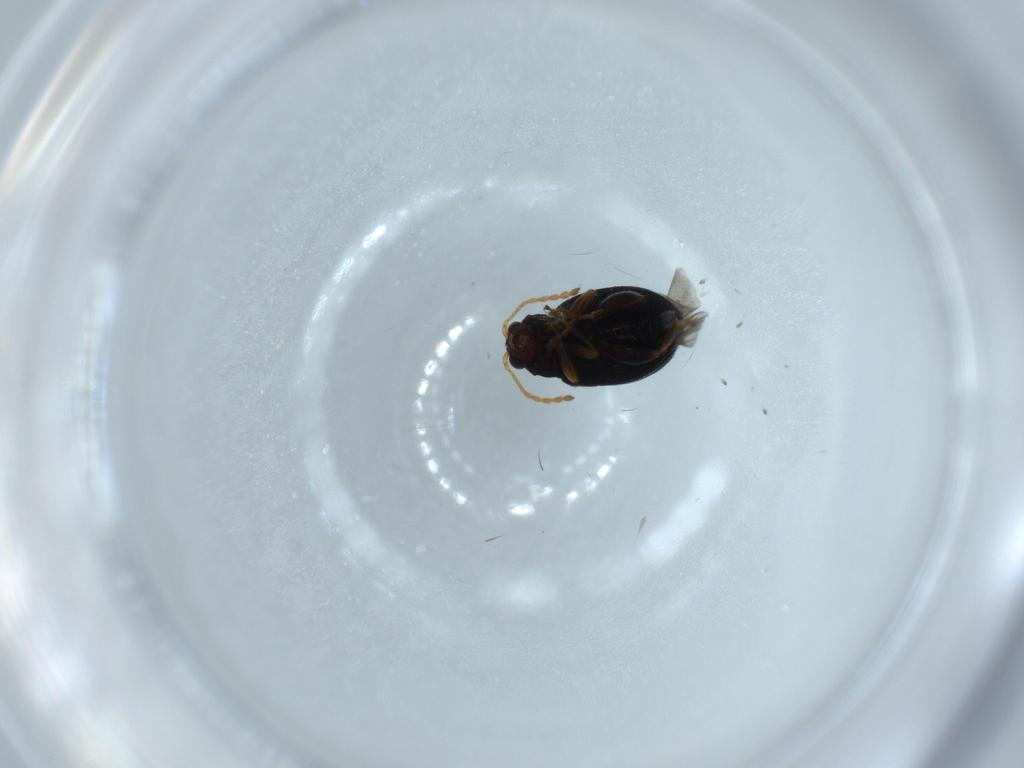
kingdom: Animalia
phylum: Arthropoda
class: Insecta
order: Coleoptera
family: Chrysomelidae
